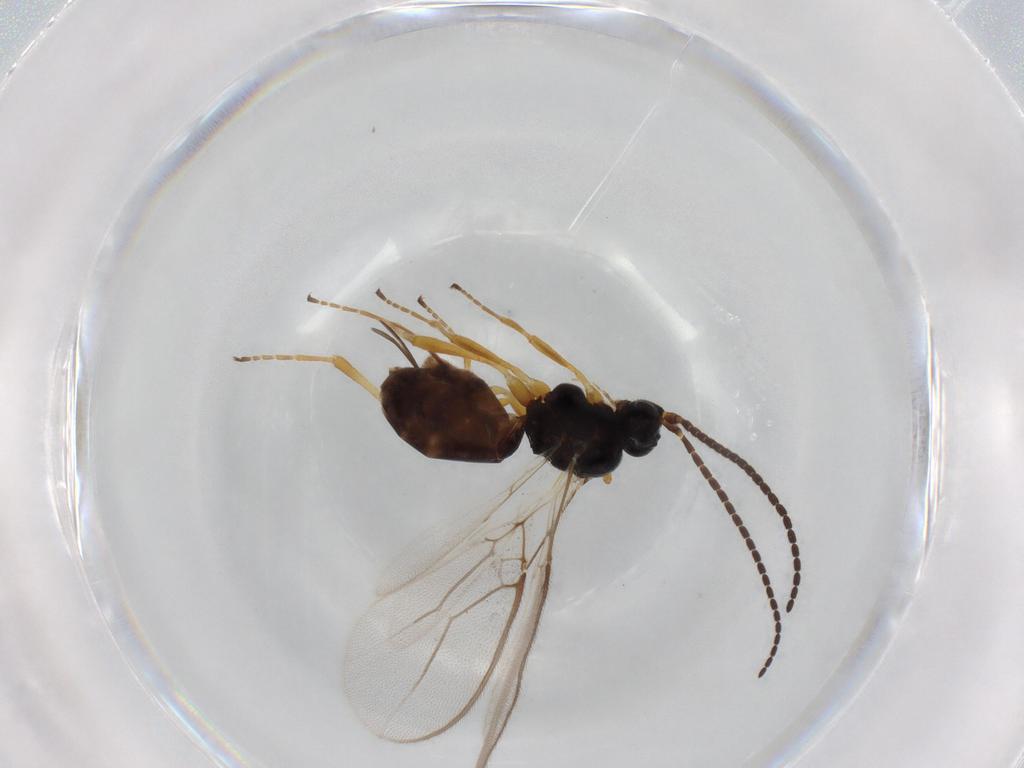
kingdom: Animalia
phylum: Arthropoda
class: Insecta
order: Hymenoptera
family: Braconidae
